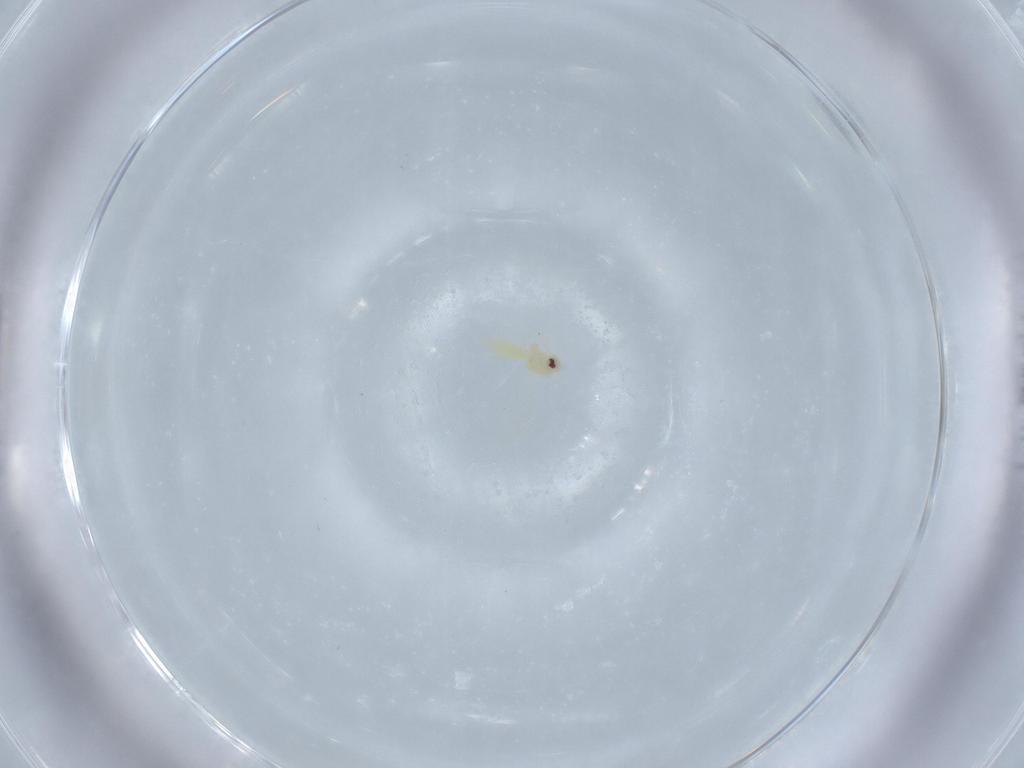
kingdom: Animalia
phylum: Arthropoda
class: Insecta
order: Hemiptera
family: Aleyrodidae
